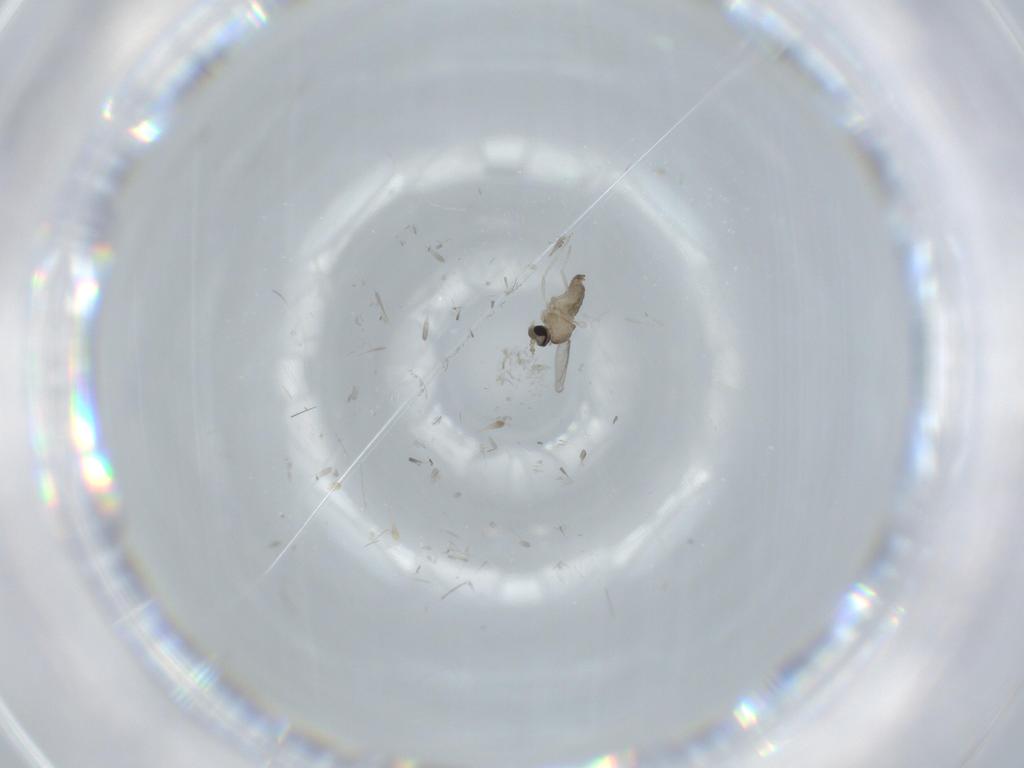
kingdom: Animalia
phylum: Arthropoda
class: Insecta
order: Diptera
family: Cecidomyiidae
